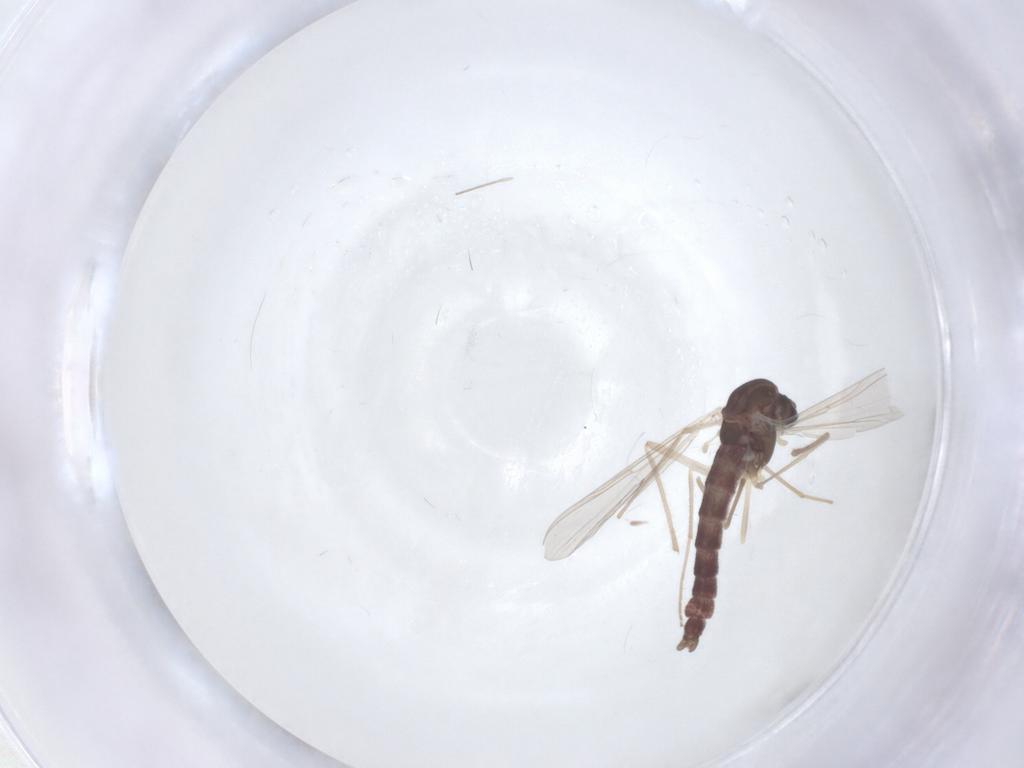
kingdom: Animalia
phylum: Arthropoda
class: Insecta
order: Diptera
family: Chironomidae
